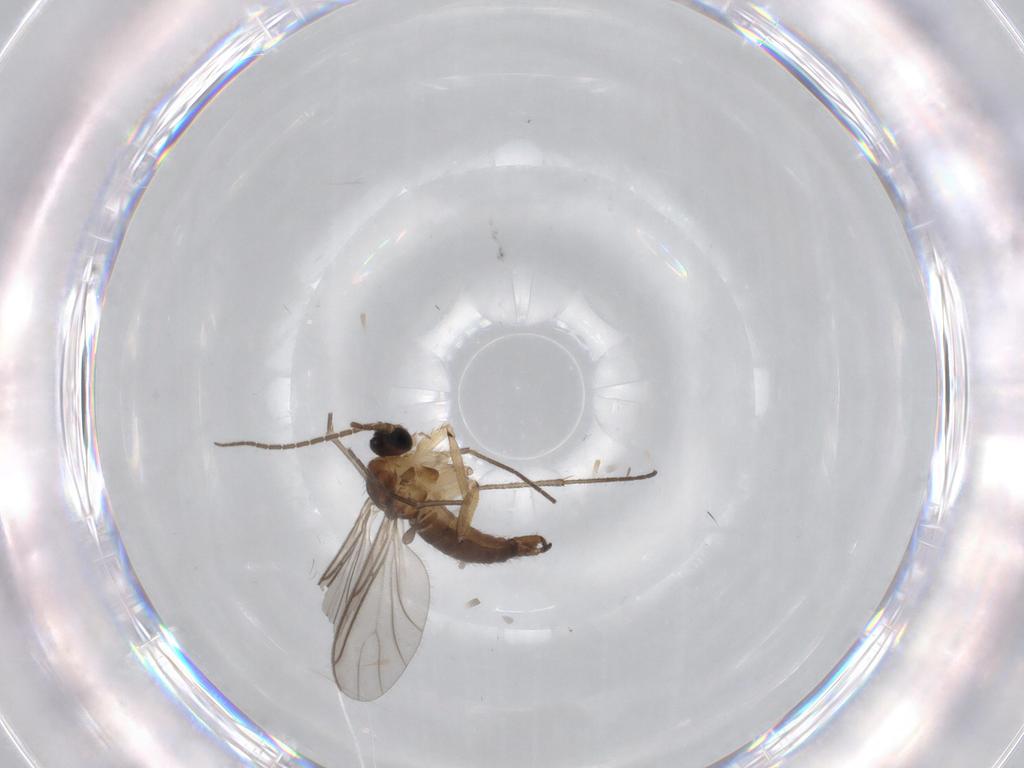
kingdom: Animalia
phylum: Arthropoda
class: Insecta
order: Diptera
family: Sciaridae
